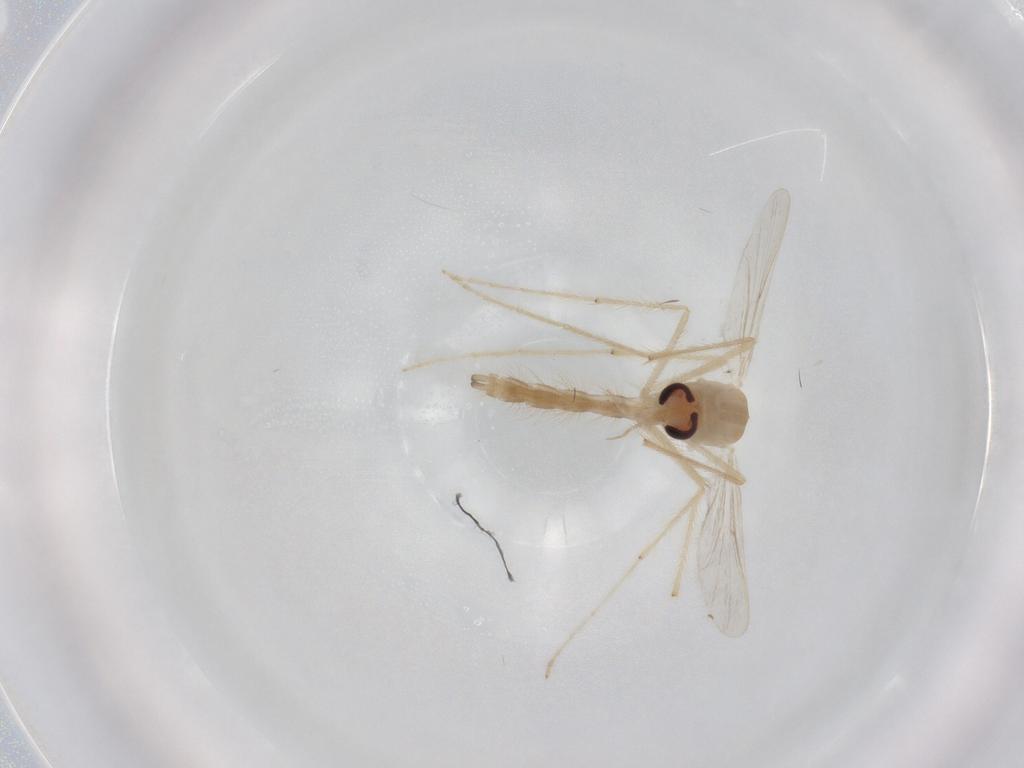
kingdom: Animalia
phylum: Arthropoda
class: Insecta
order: Diptera
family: Chironomidae
